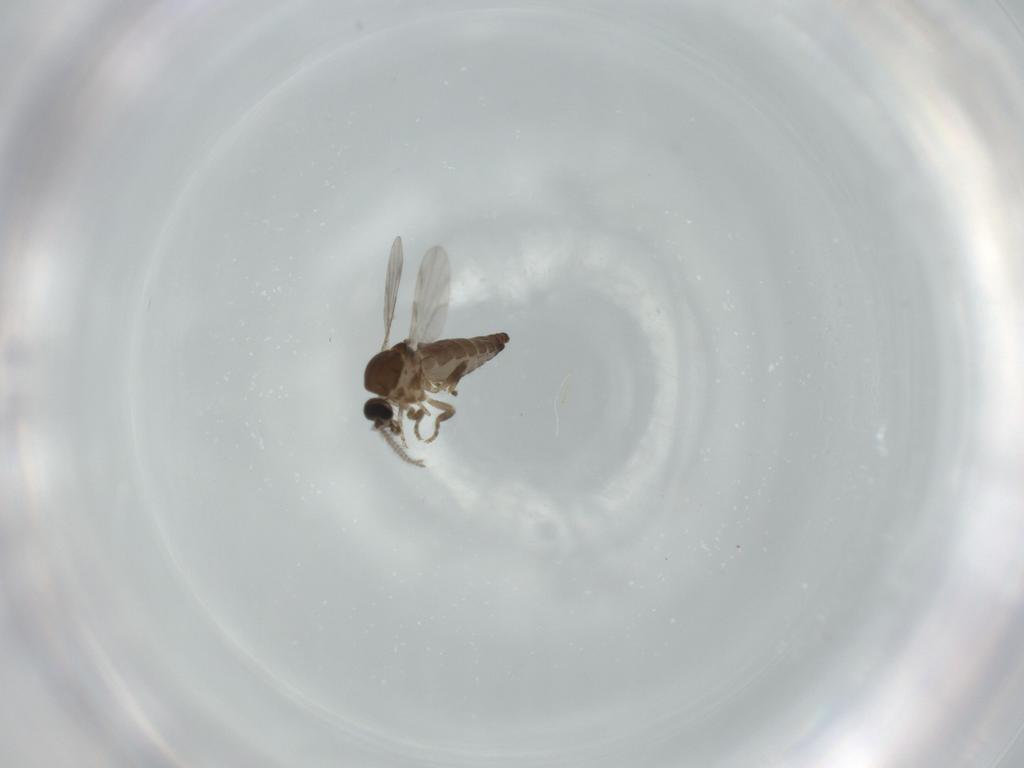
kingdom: Animalia
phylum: Arthropoda
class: Insecta
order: Diptera
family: Ceratopogonidae
